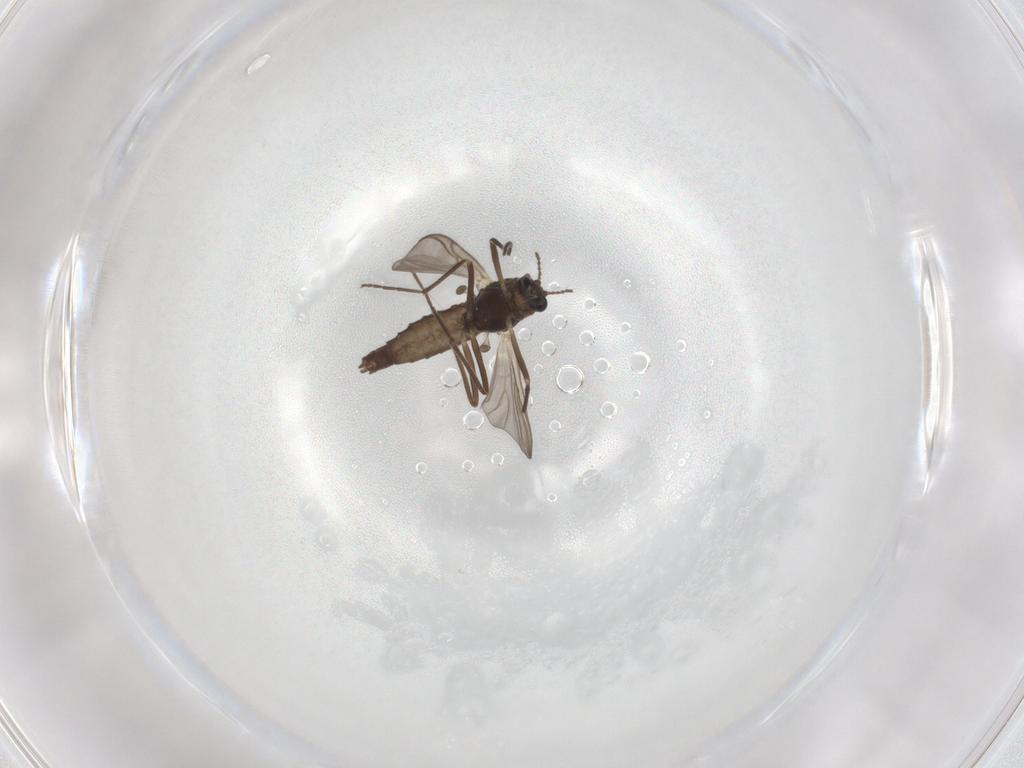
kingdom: Animalia
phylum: Arthropoda
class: Insecta
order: Diptera
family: Chironomidae
